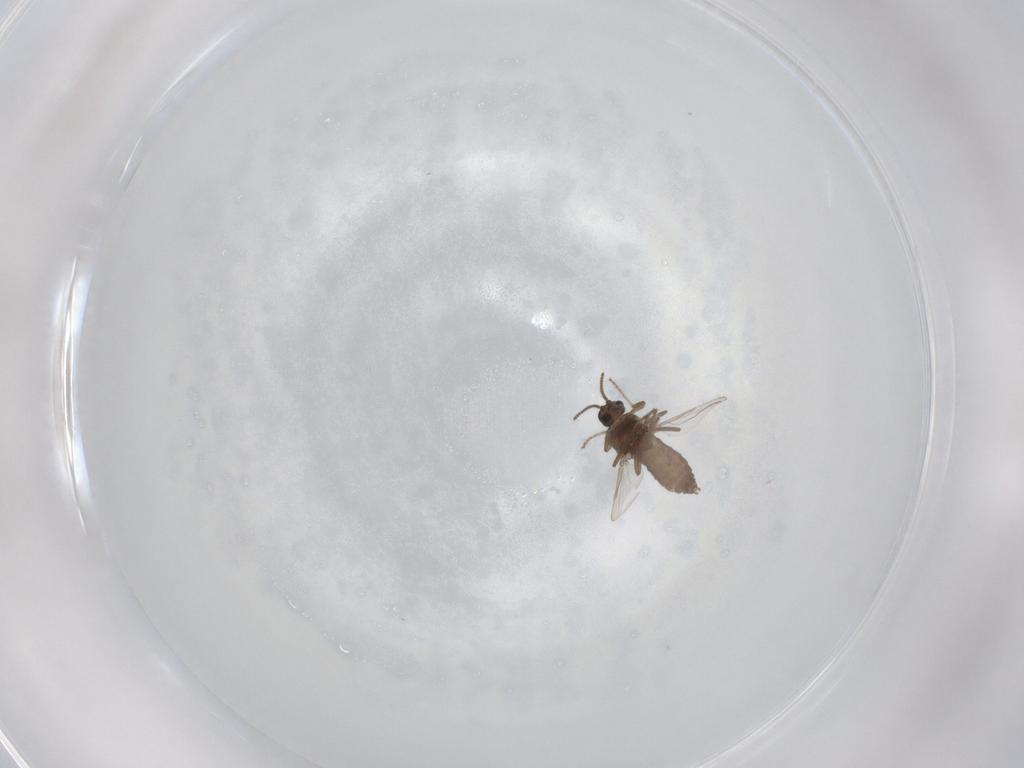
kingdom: Animalia
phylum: Arthropoda
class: Insecta
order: Diptera
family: Ceratopogonidae
